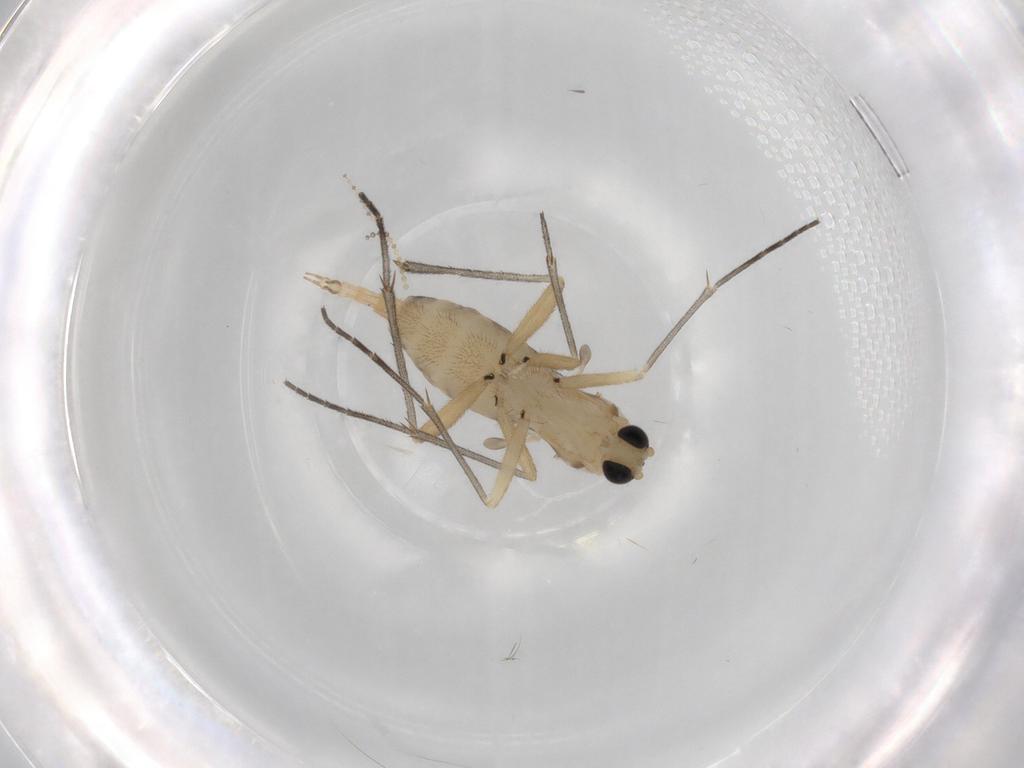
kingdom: Animalia
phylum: Arthropoda
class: Insecta
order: Diptera
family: Sciaridae
